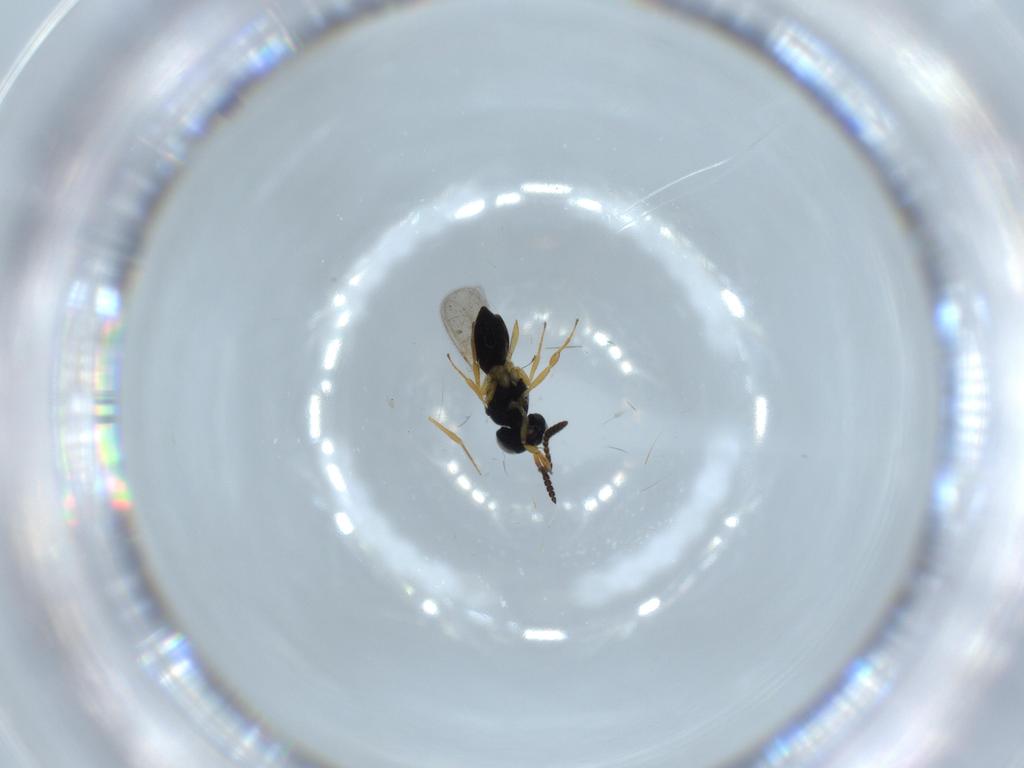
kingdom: Animalia
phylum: Arthropoda
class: Insecta
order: Hymenoptera
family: Scelionidae
